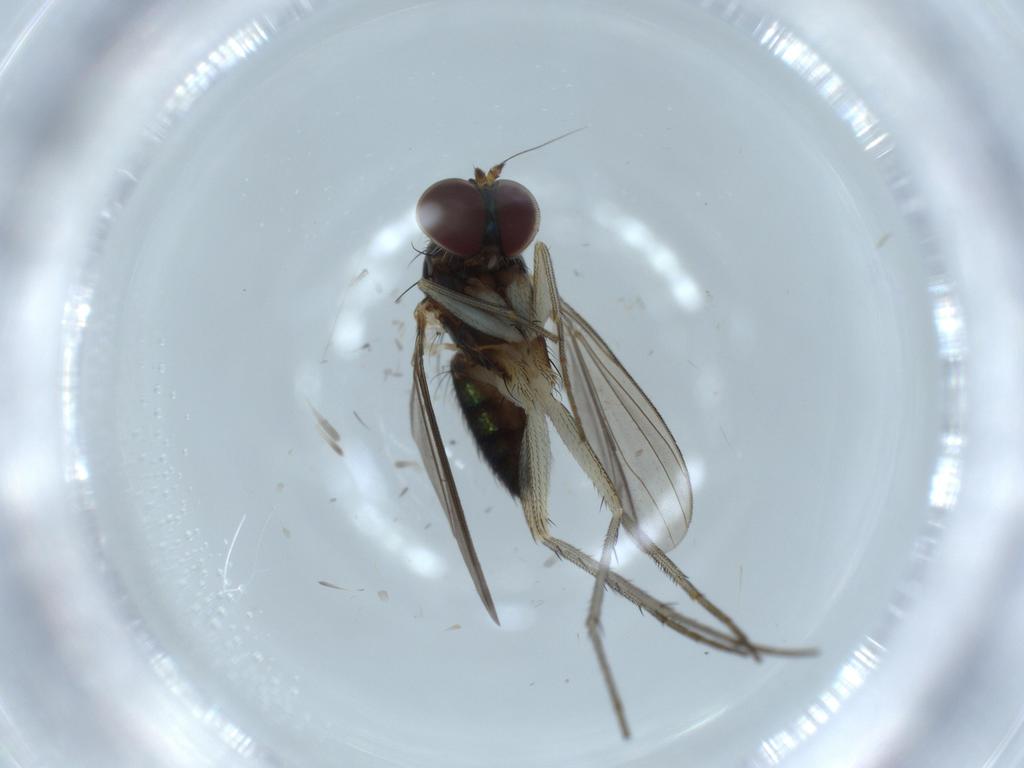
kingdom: Animalia
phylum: Arthropoda
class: Insecta
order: Diptera
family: Dolichopodidae
